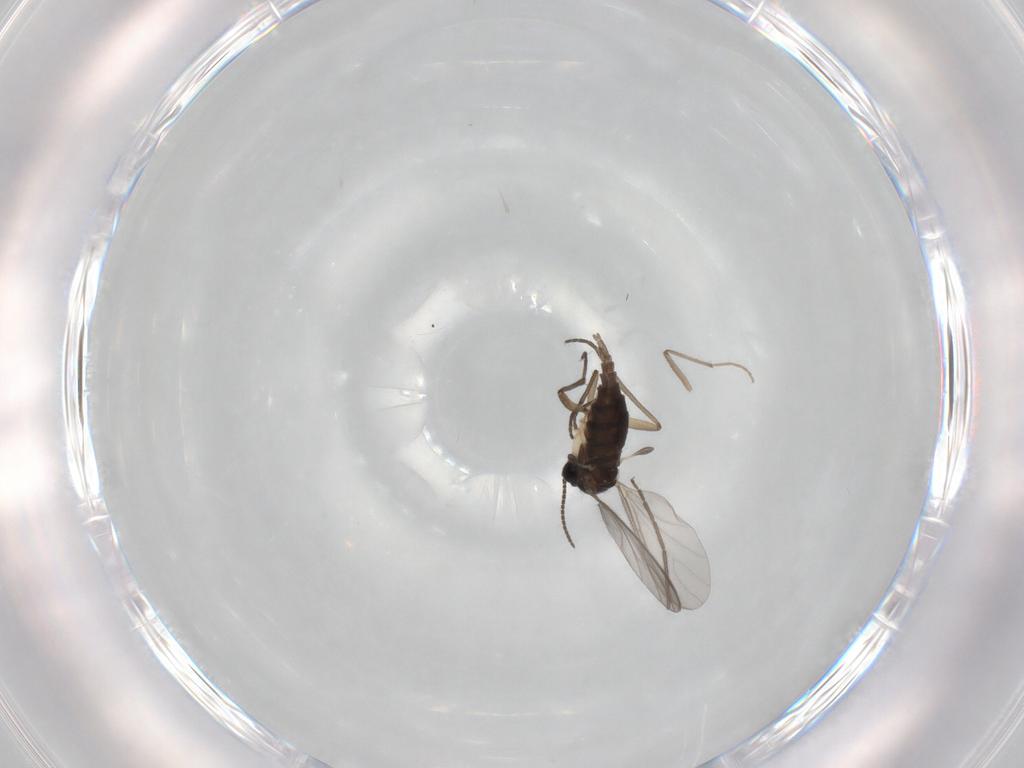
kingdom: Animalia
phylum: Arthropoda
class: Insecta
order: Diptera
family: Sciaridae
